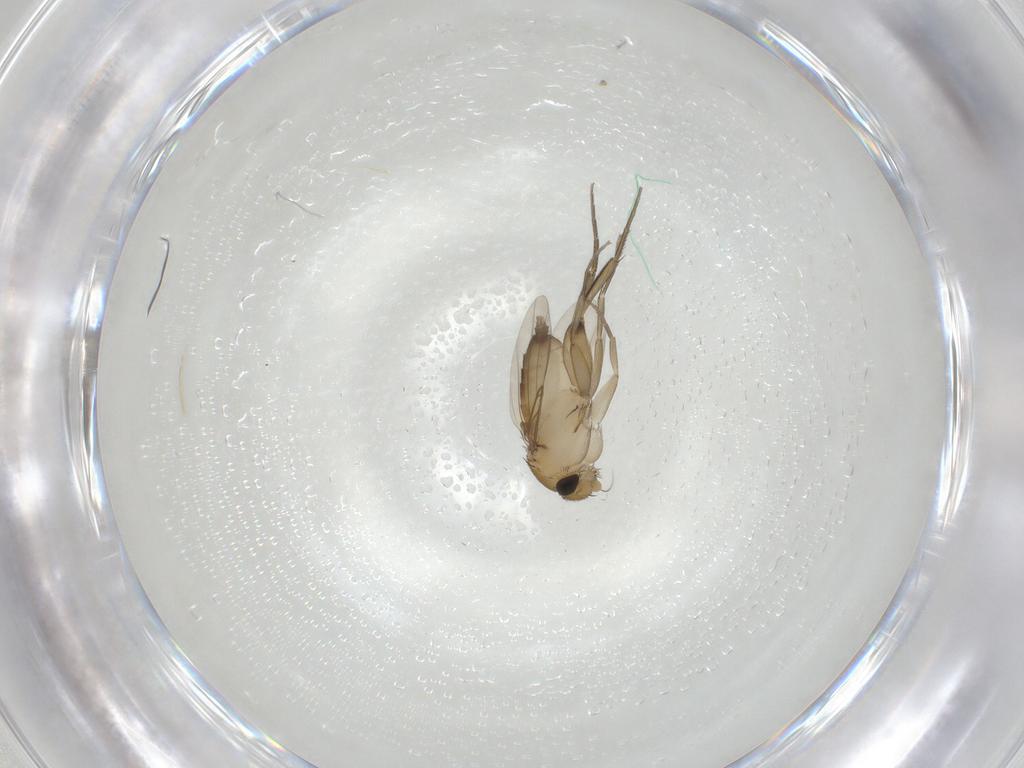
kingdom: Animalia
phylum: Arthropoda
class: Insecta
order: Diptera
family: Phoridae
